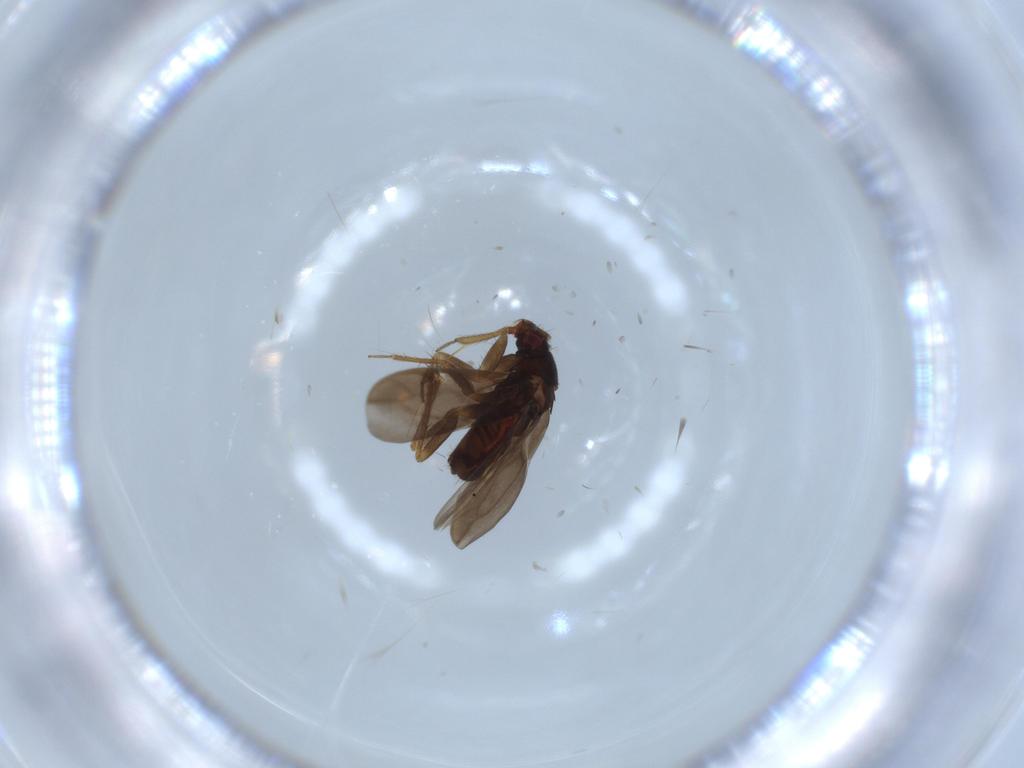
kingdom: Animalia
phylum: Arthropoda
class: Insecta
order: Hemiptera
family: Ceratocombidae
